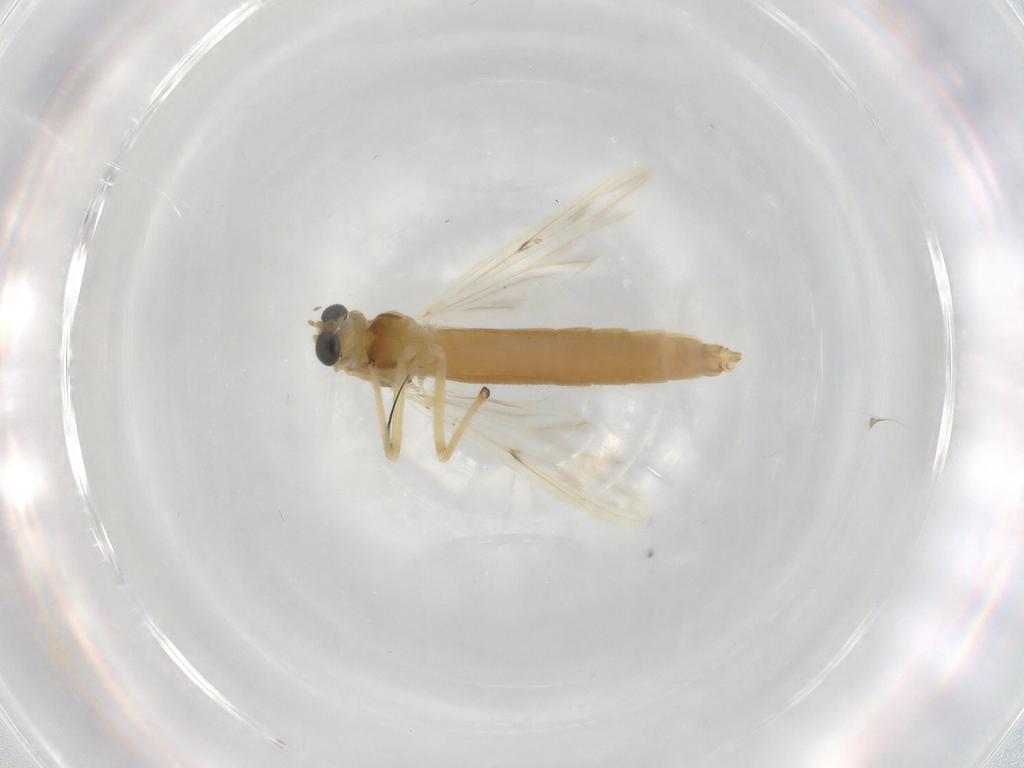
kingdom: Animalia
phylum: Arthropoda
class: Insecta
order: Diptera
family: Chironomidae
